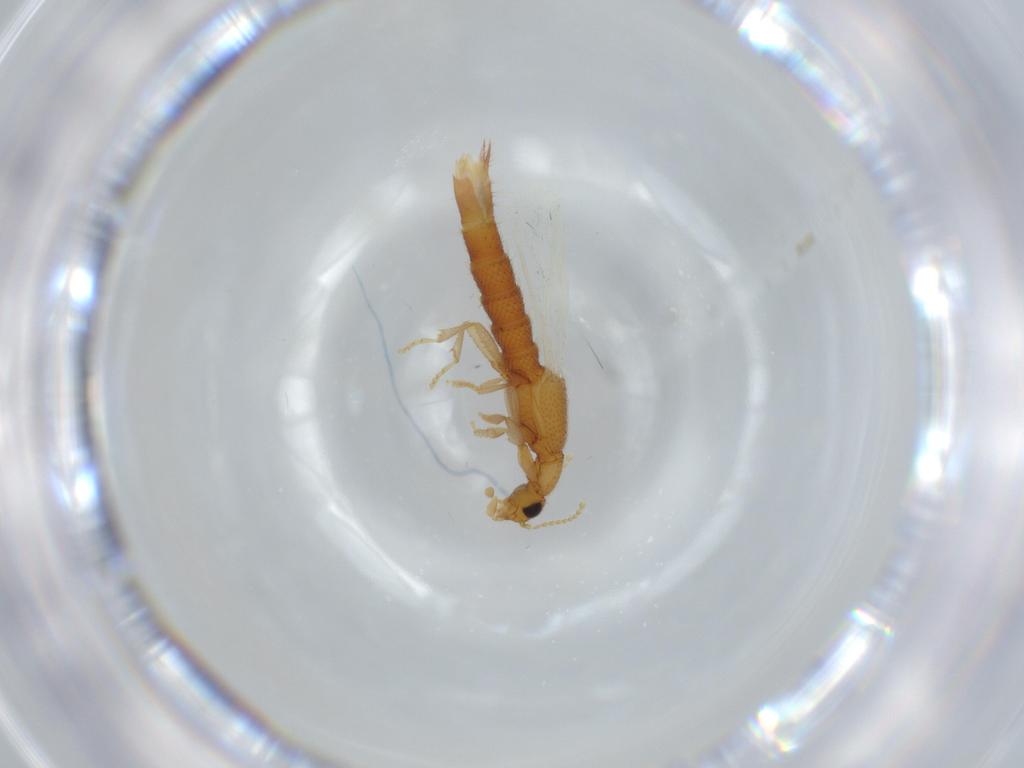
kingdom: Animalia
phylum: Arthropoda
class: Insecta
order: Coleoptera
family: Staphylinidae
